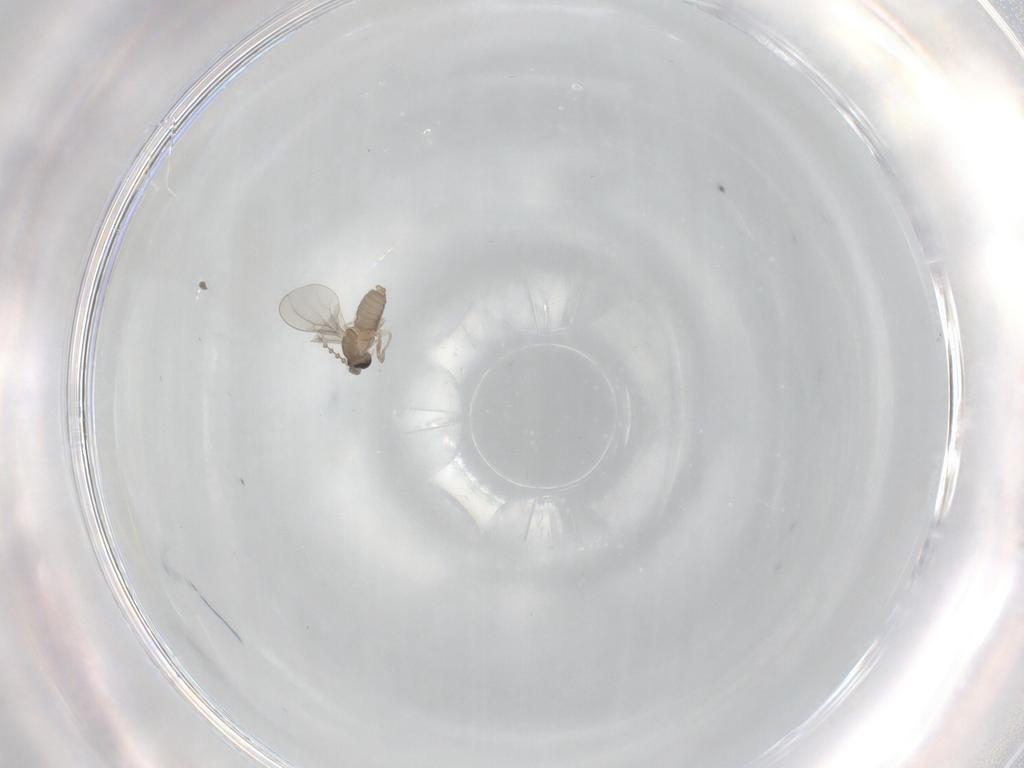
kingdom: Animalia
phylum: Arthropoda
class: Insecta
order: Diptera
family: Cecidomyiidae
